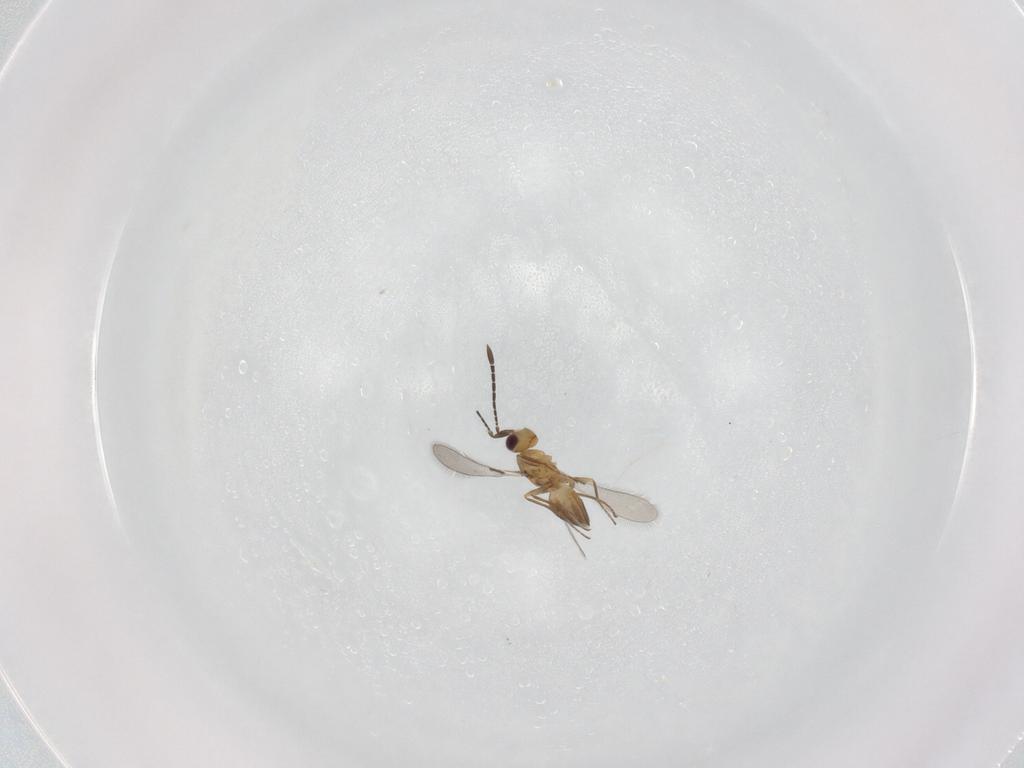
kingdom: Animalia
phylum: Arthropoda
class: Insecta
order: Hymenoptera
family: Mymaridae
